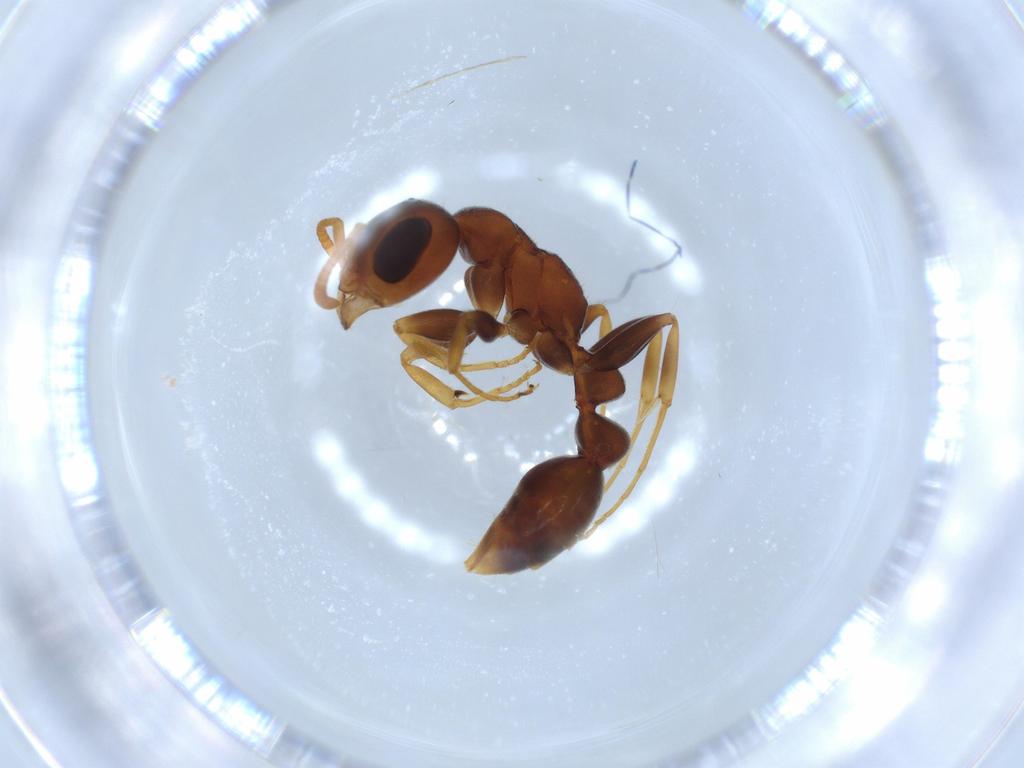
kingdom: Animalia
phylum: Arthropoda
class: Insecta
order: Hymenoptera
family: Formicidae
